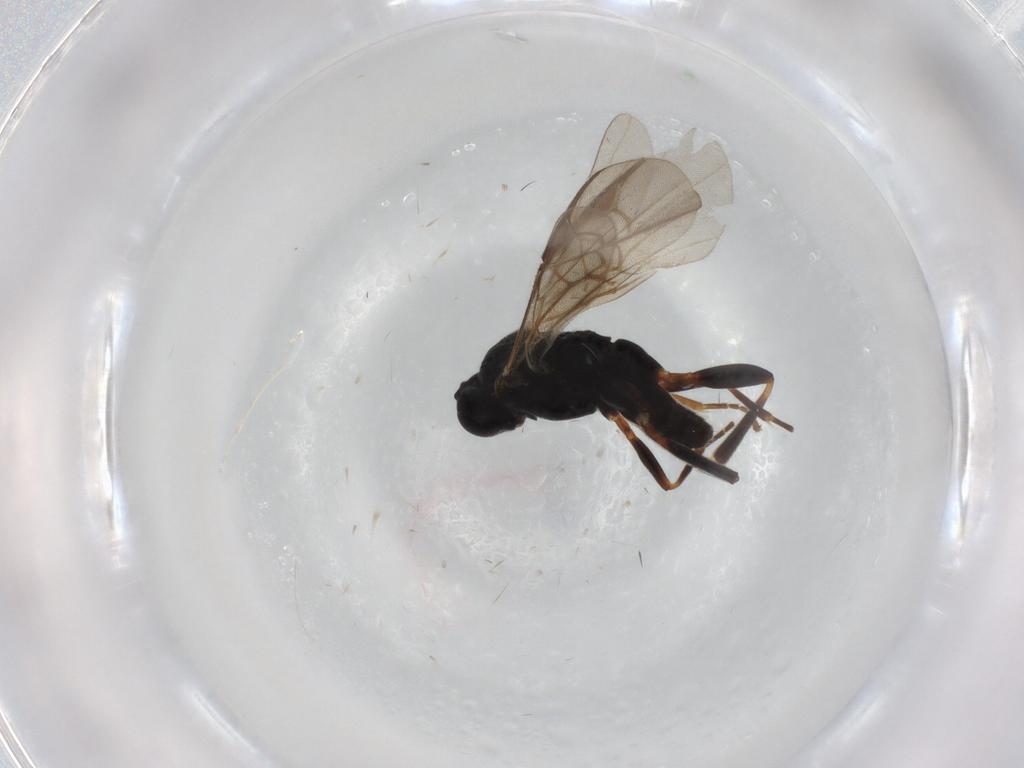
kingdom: Animalia
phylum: Arthropoda
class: Insecta
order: Hymenoptera
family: Braconidae
